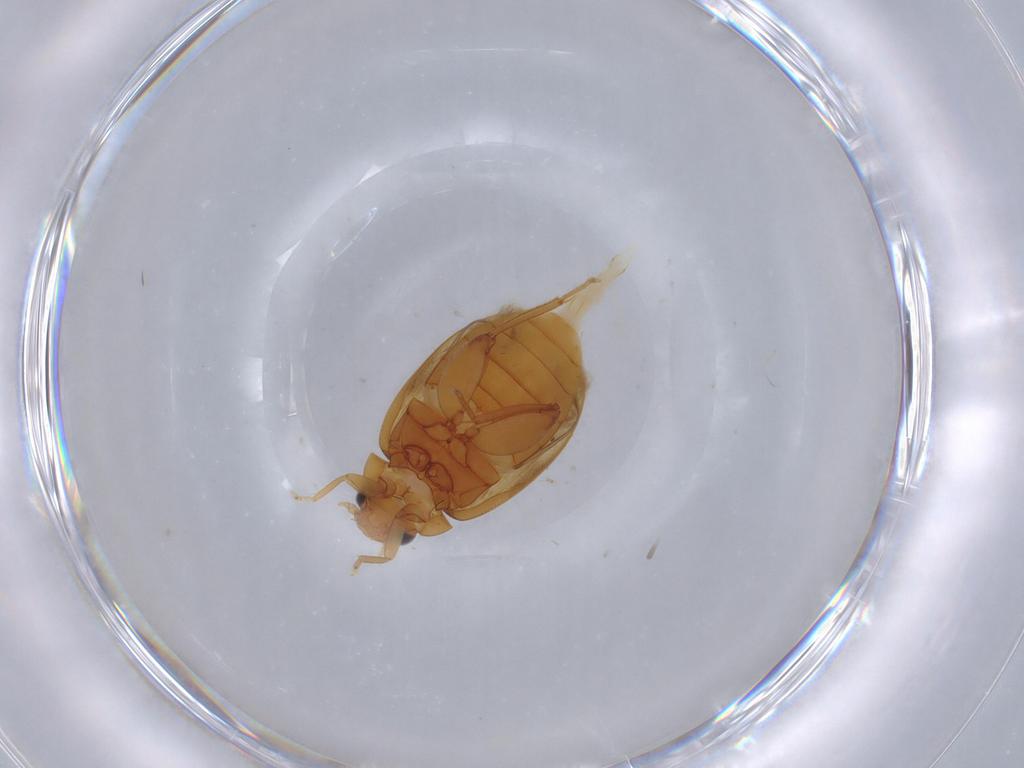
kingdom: Animalia
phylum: Arthropoda
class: Insecta
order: Coleoptera
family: Scirtidae
